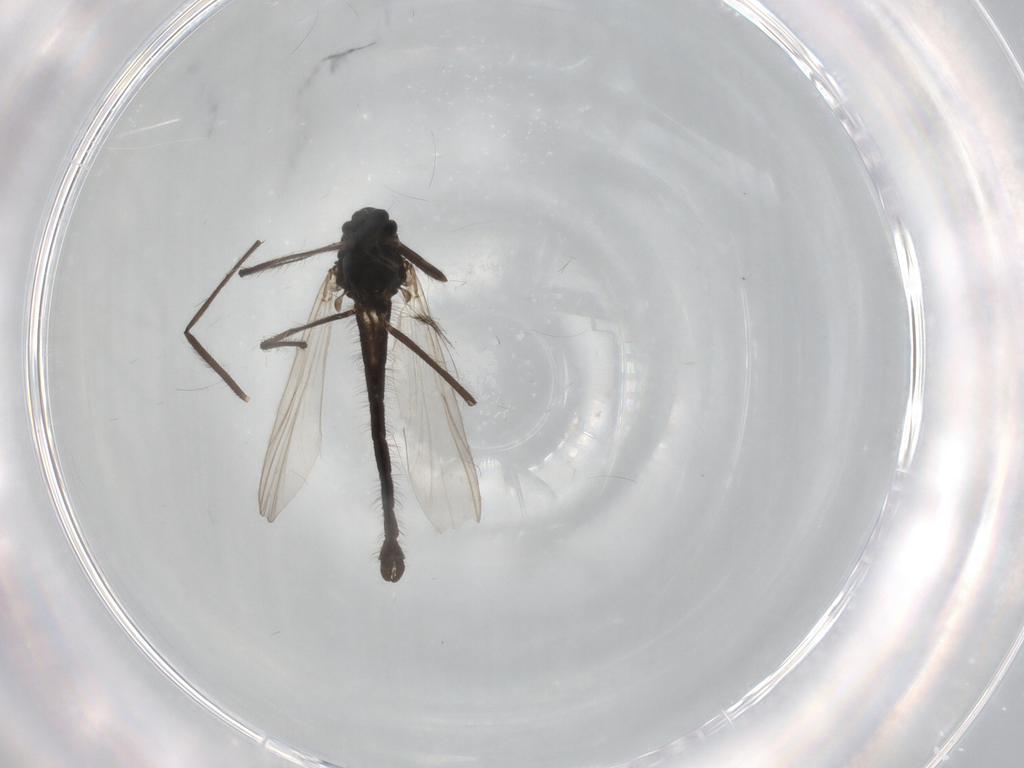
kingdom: Animalia
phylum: Arthropoda
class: Insecta
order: Diptera
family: Chironomidae
